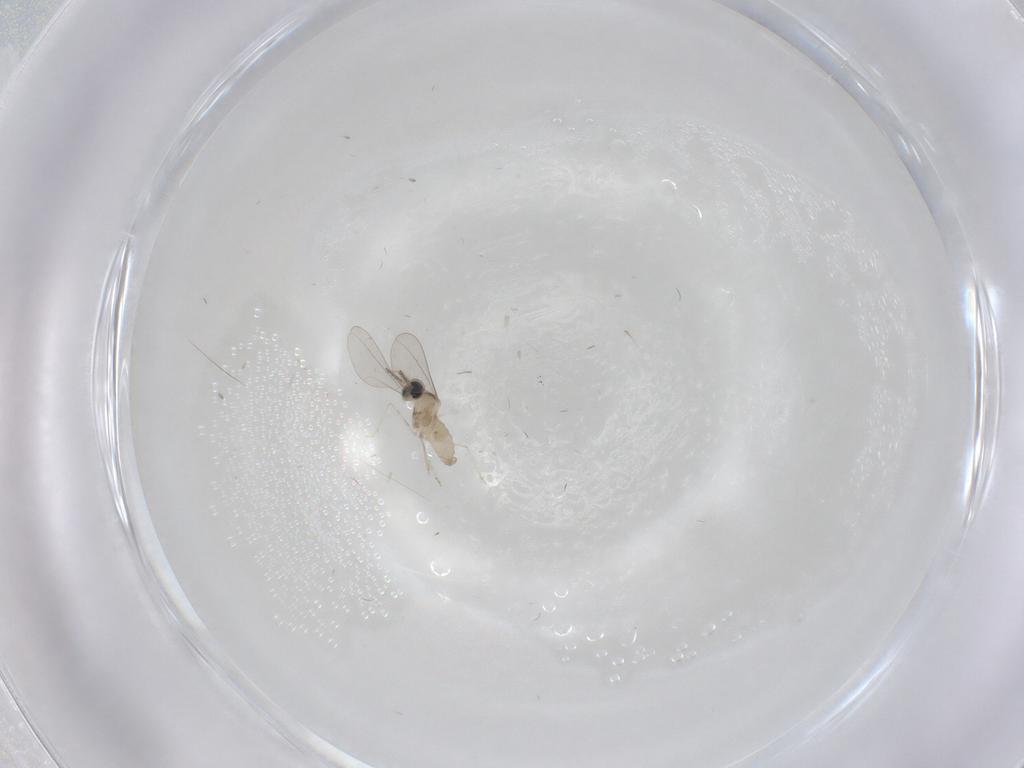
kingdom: Animalia
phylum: Arthropoda
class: Insecta
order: Diptera
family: Cecidomyiidae
